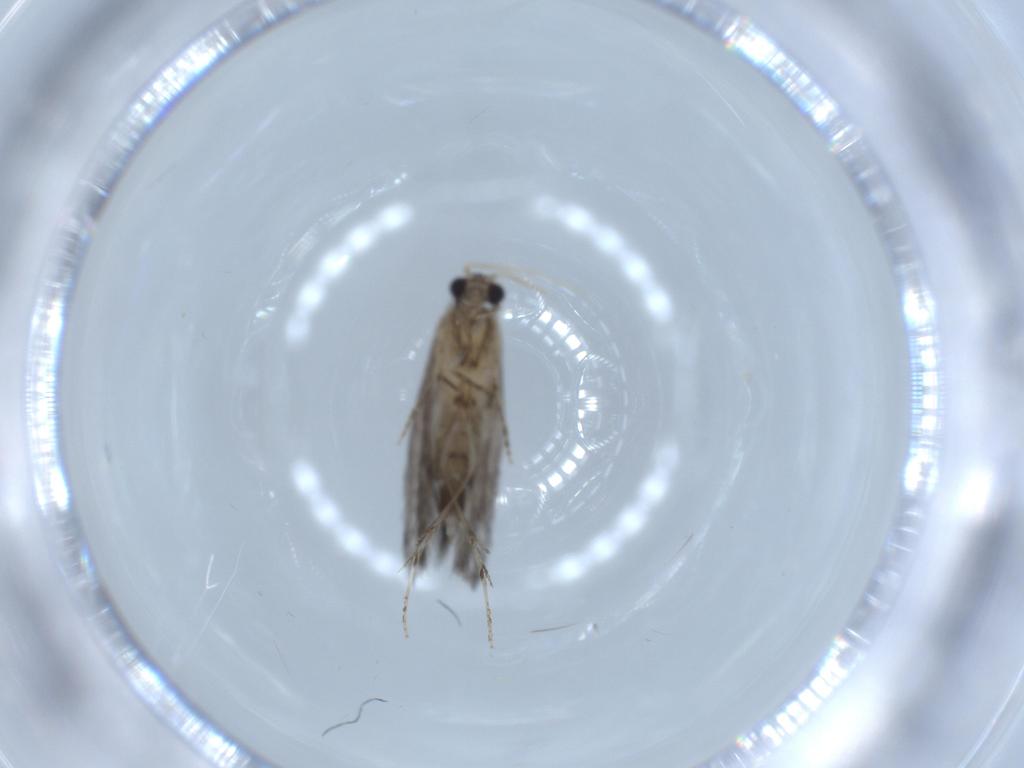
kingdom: Animalia
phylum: Arthropoda
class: Insecta
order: Trichoptera
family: Hydroptilidae
